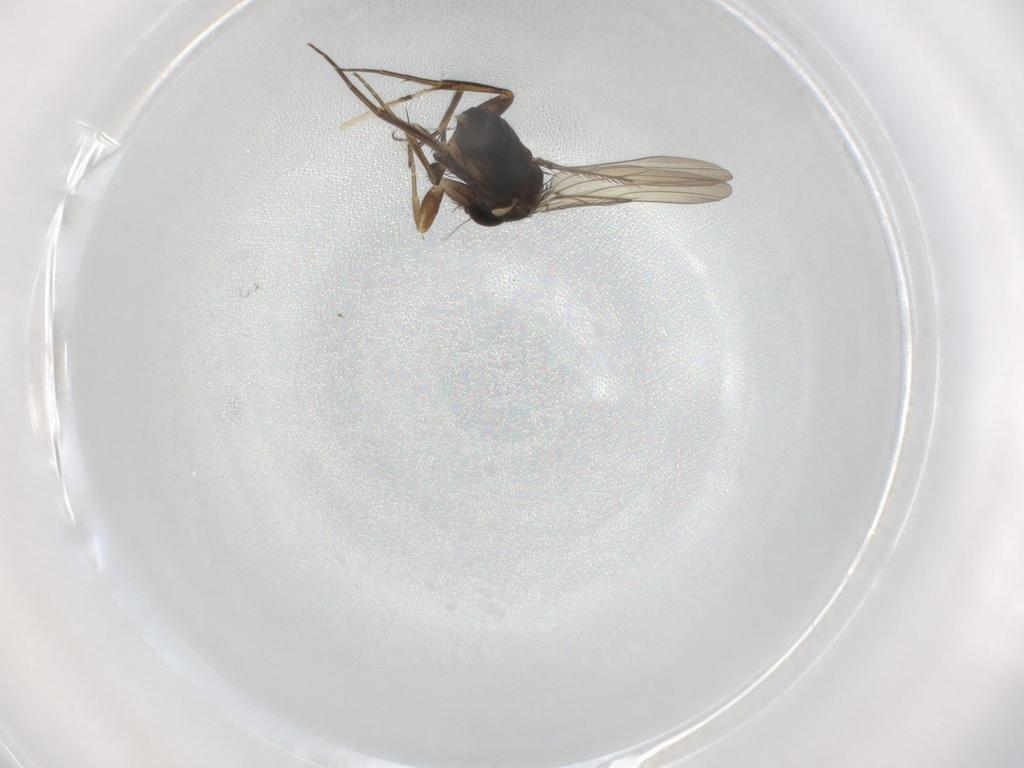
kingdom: Animalia
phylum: Arthropoda
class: Insecta
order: Diptera
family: Phoridae
